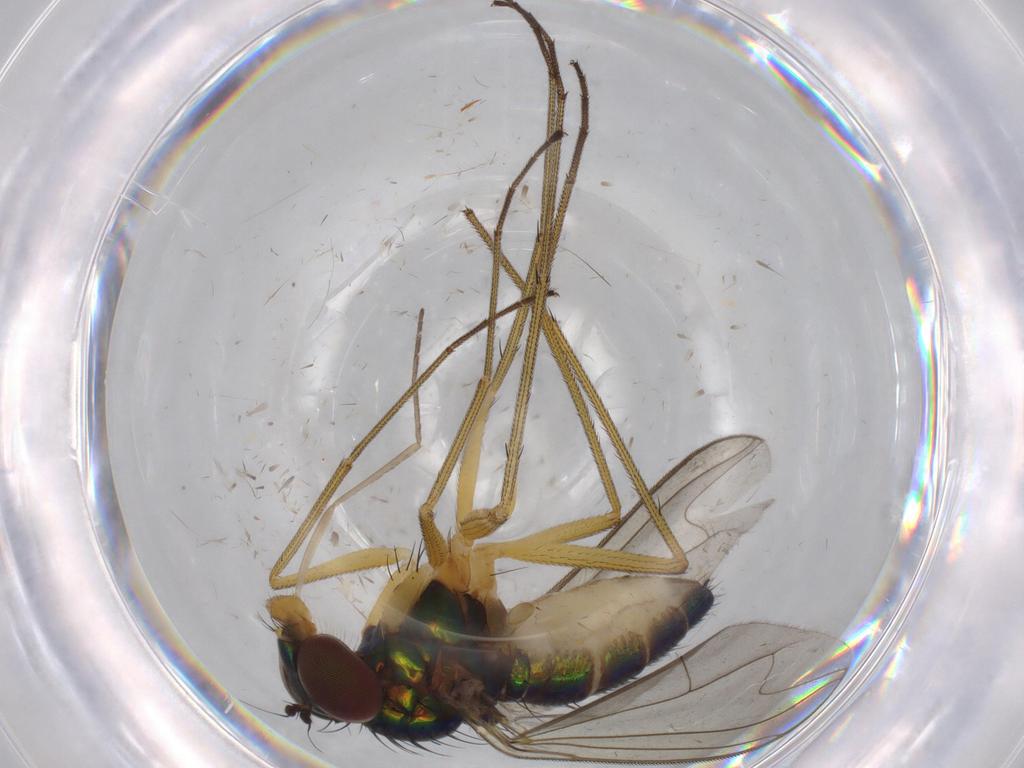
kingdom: Animalia
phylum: Arthropoda
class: Insecta
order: Diptera
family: Dolichopodidae
